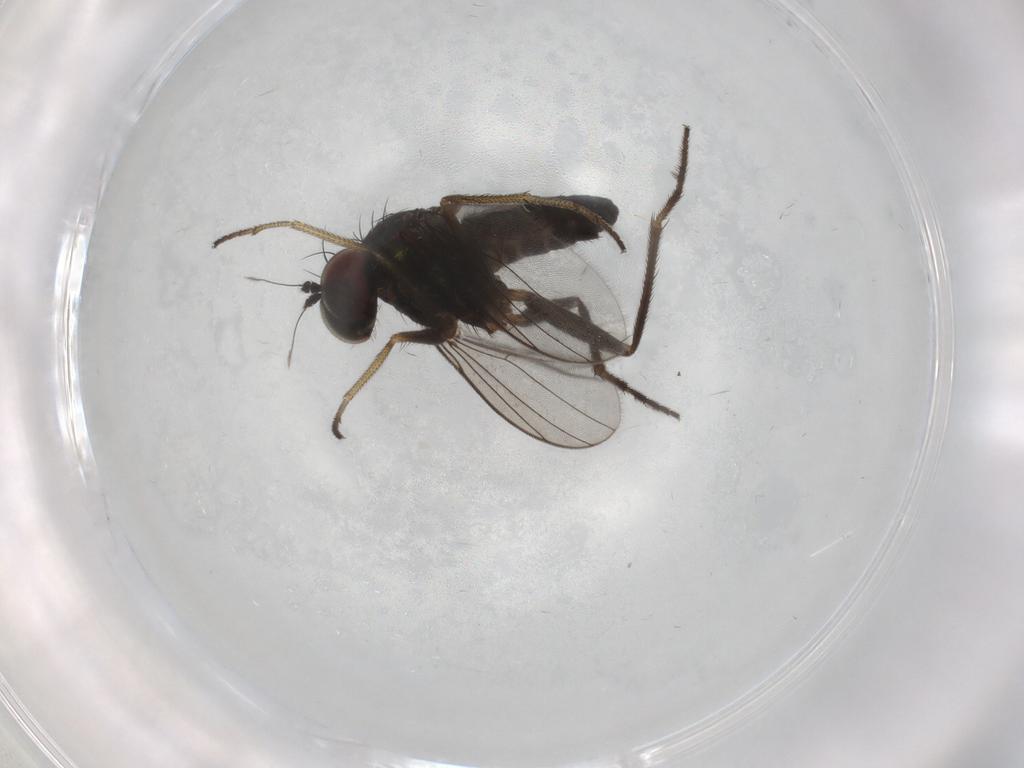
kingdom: Animalia
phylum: Arthropoda
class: Insecta
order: Diptera
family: Dolichopodidae
